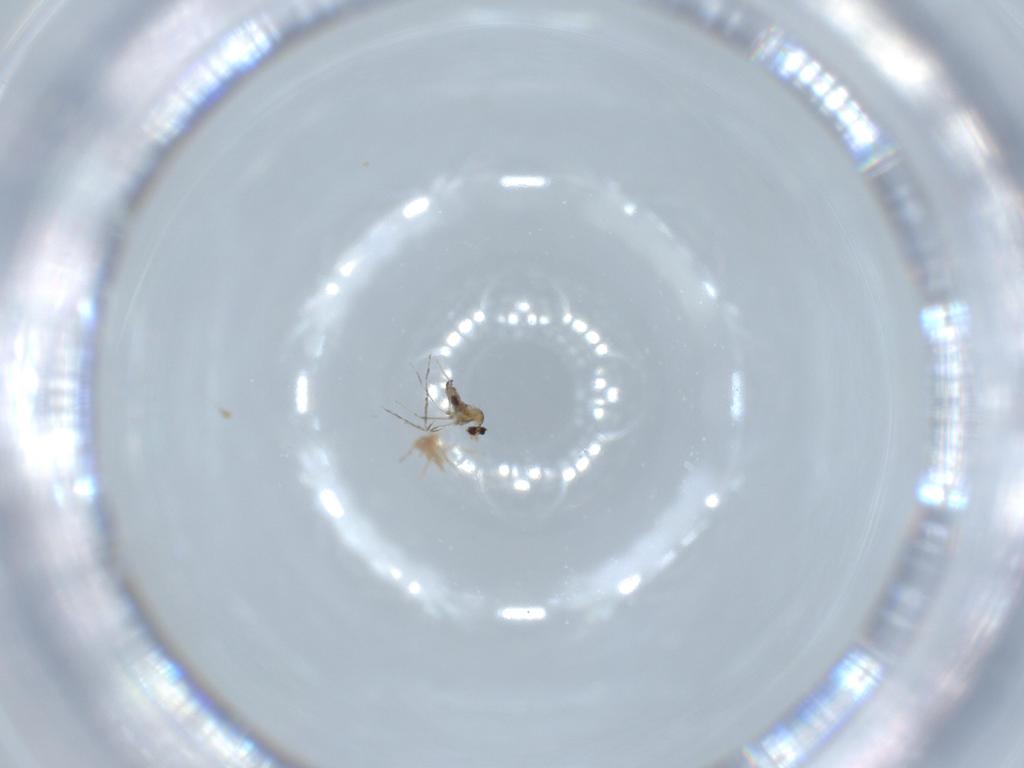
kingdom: Animalia
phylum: Arthropoda
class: Insecta
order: Diptera
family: Cecidomyiidae
